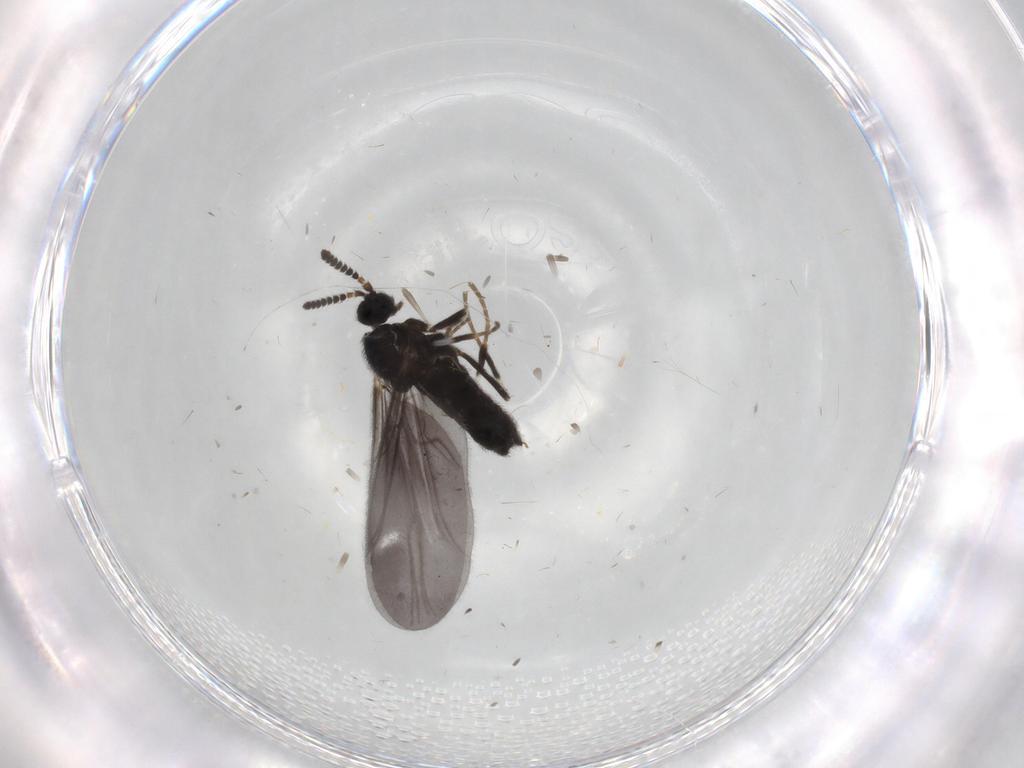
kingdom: Animalia
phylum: Arthropoda
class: Insecta
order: Diptera
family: Scatopsidae
